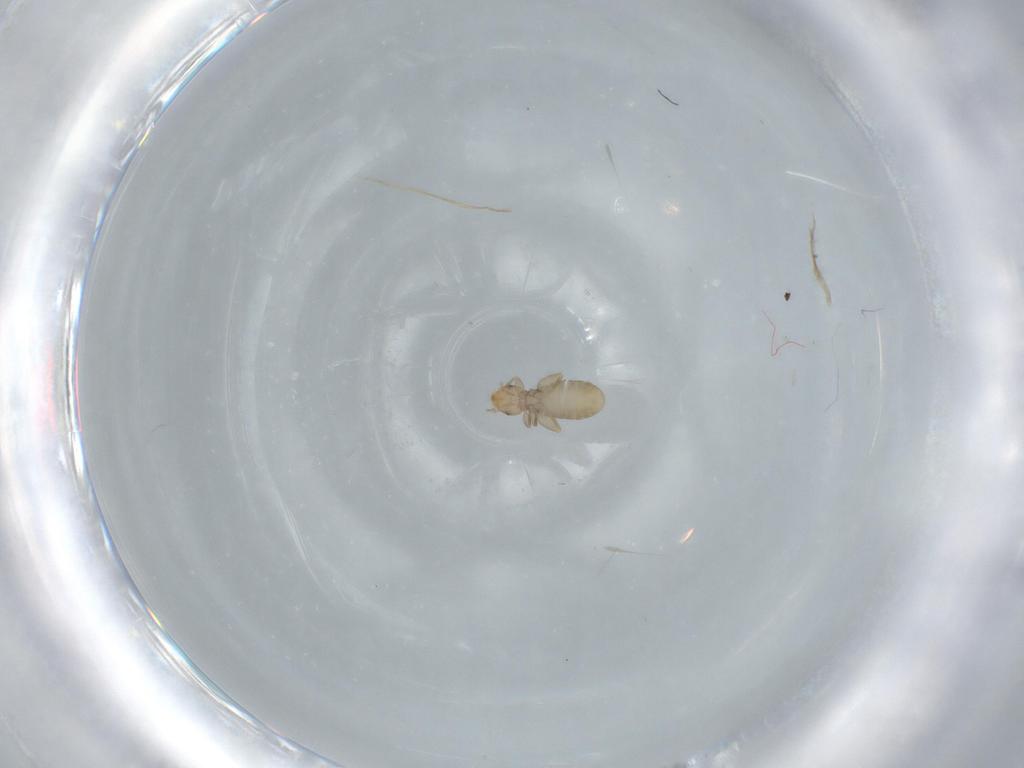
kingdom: Animalia
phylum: Arthropoda
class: Insecta
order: Psocodea
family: Liposcelididae
